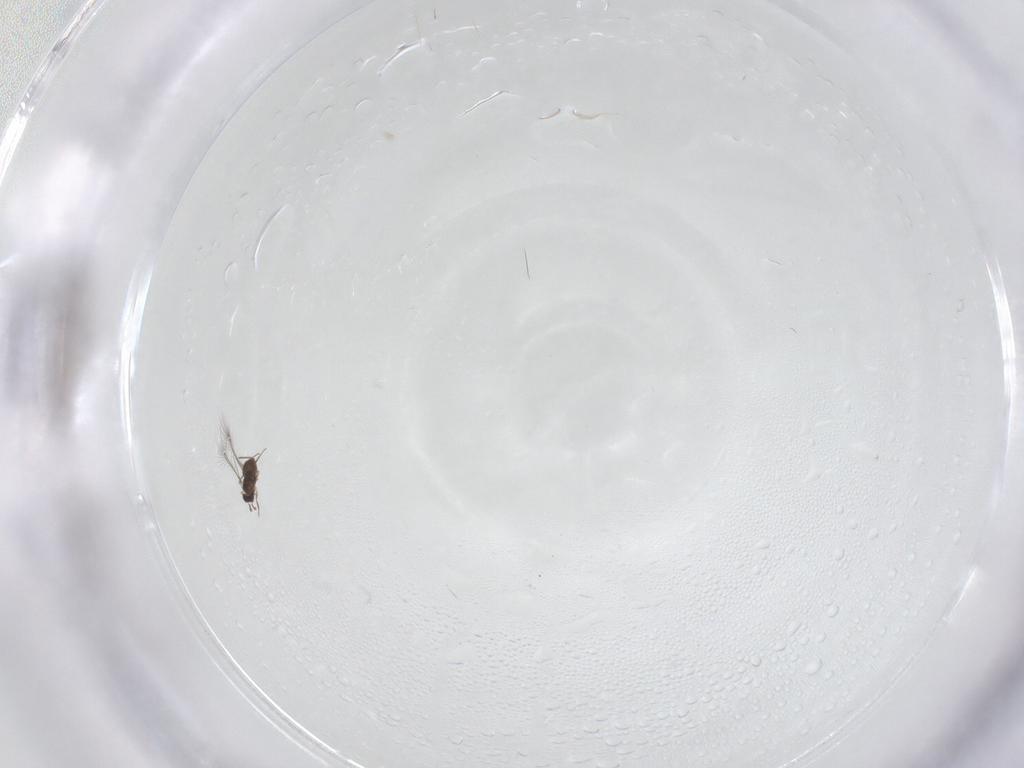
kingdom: Animalia
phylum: Arthropoda
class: Insecta
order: Hymenoptera
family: Mymaridae
